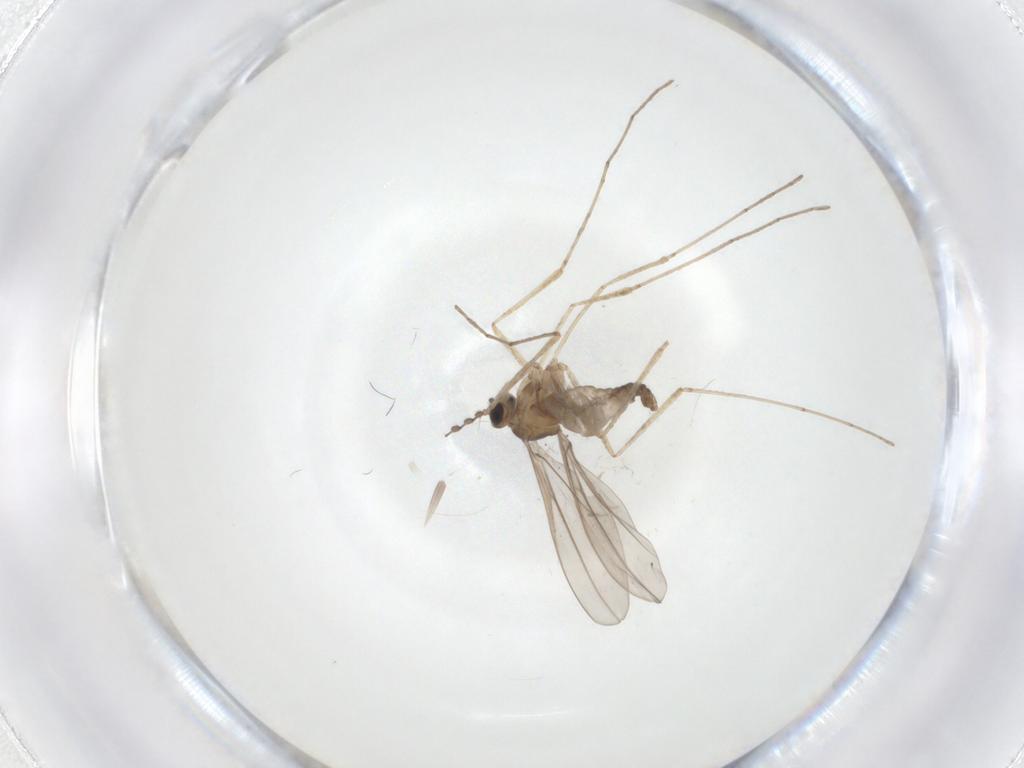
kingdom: Animalia
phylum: Arthropoda
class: Insecta
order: Diptera
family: Cecidomyiidae
